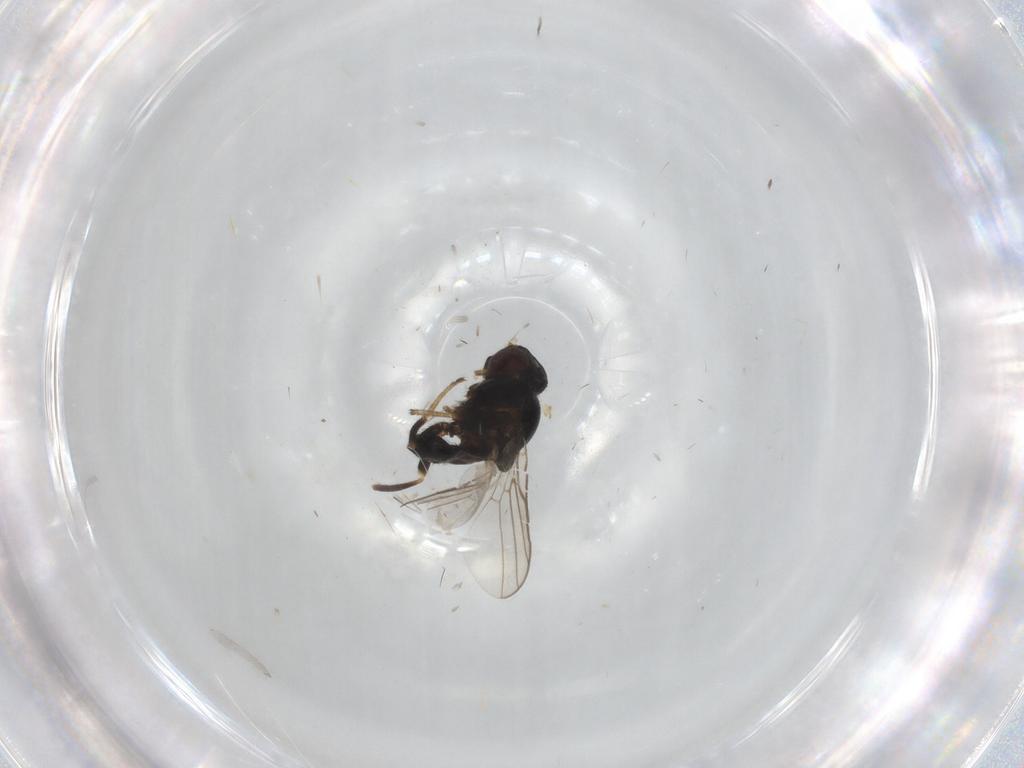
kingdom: Animalia
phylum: Arthropoda
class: Insecta
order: Diptera
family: Chloropidae
